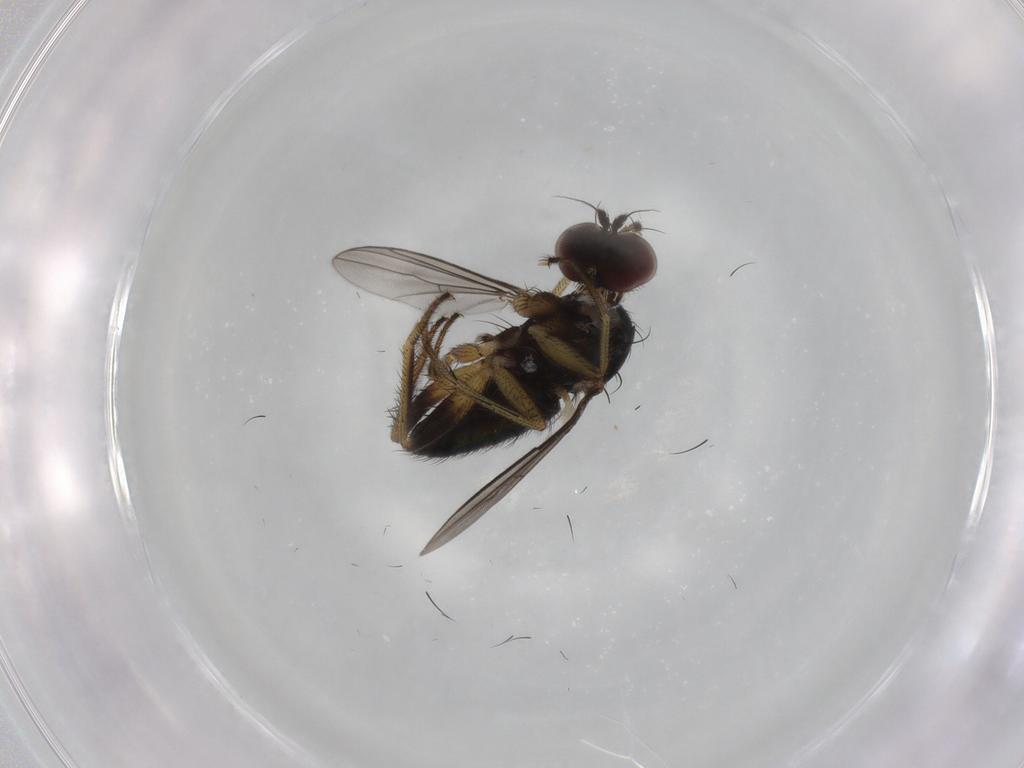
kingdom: Animalia
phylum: Arthropoda
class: Insecta
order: Diptera
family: Dolichopodidae
